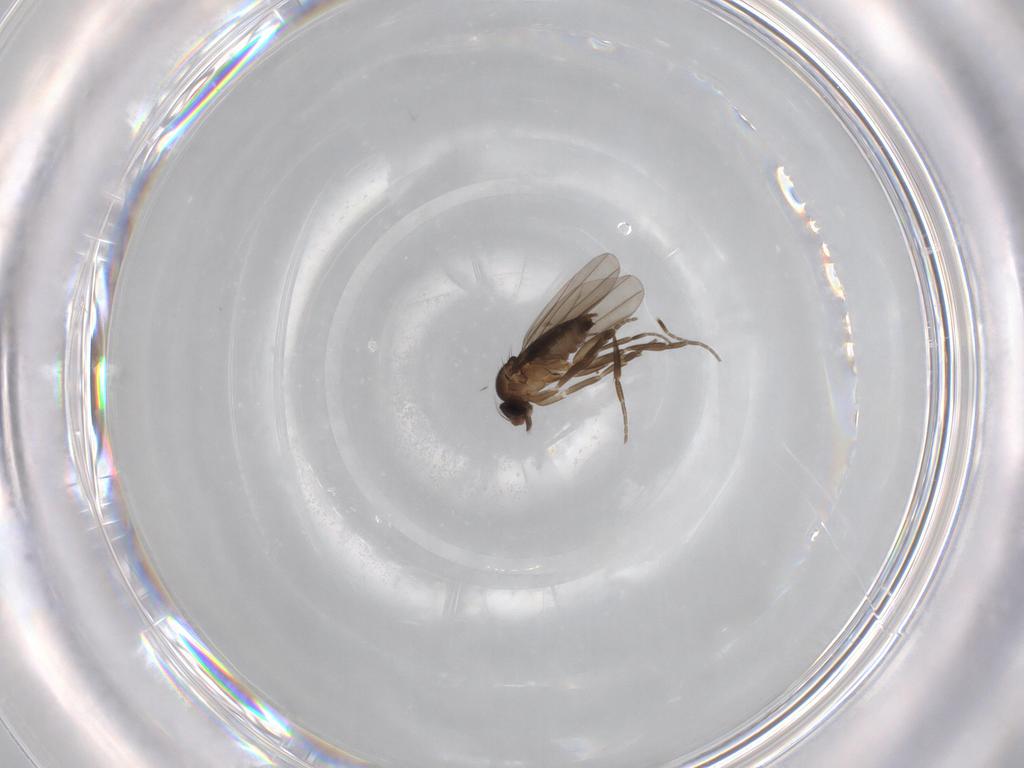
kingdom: Animalia
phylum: Arthropoda
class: Insecta
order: Diptera
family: Phoridae
